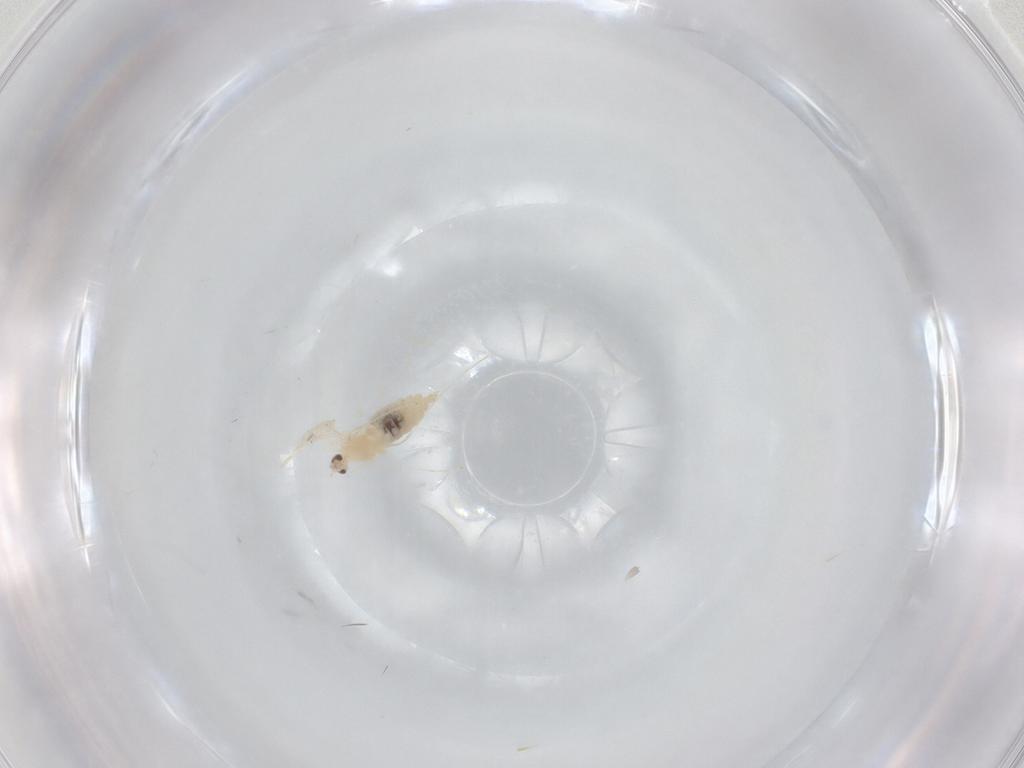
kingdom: Animalia
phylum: Arthropoda
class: Insecta
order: Diptera
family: Cecidomyiidae
